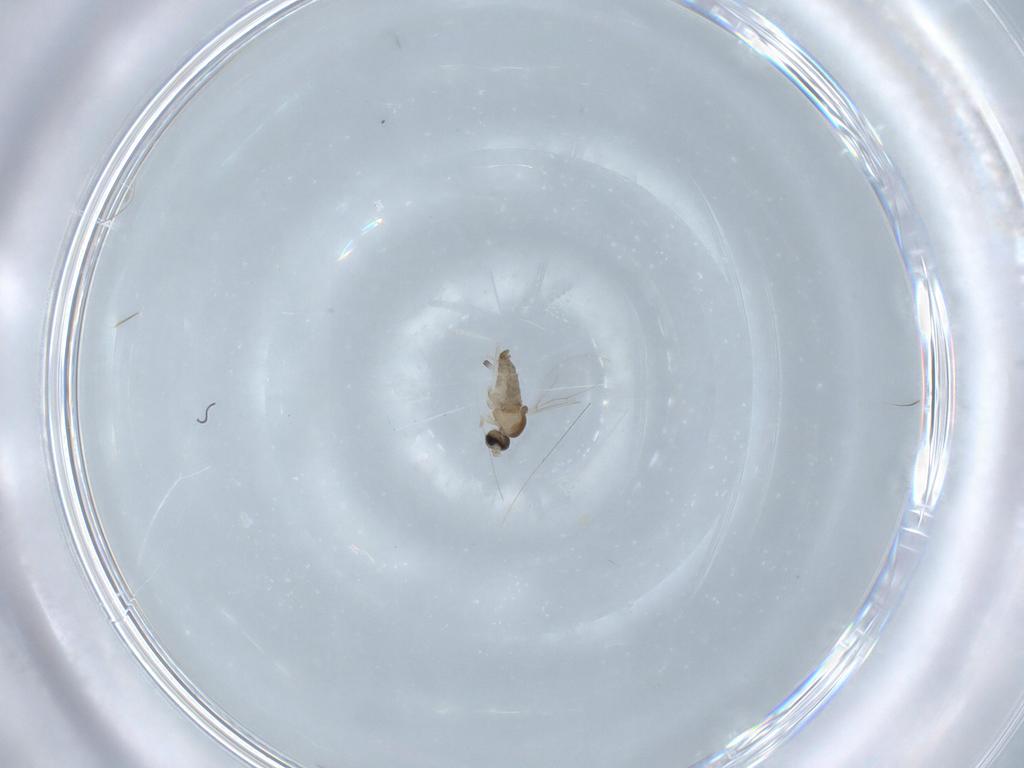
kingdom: Animalia
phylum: Arthropoda
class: Insecta
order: Diptera
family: Cecidomyiidae
